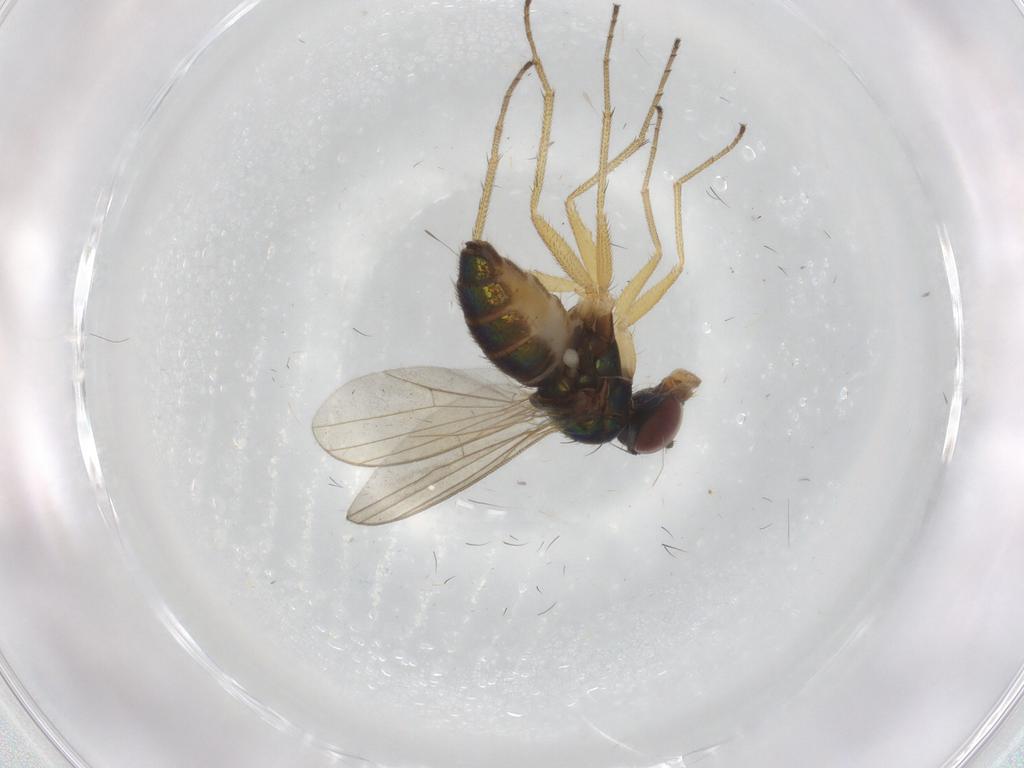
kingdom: Animalia
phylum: Arthropoda
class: Insecta
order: Diptera
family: Dolichopodidae
